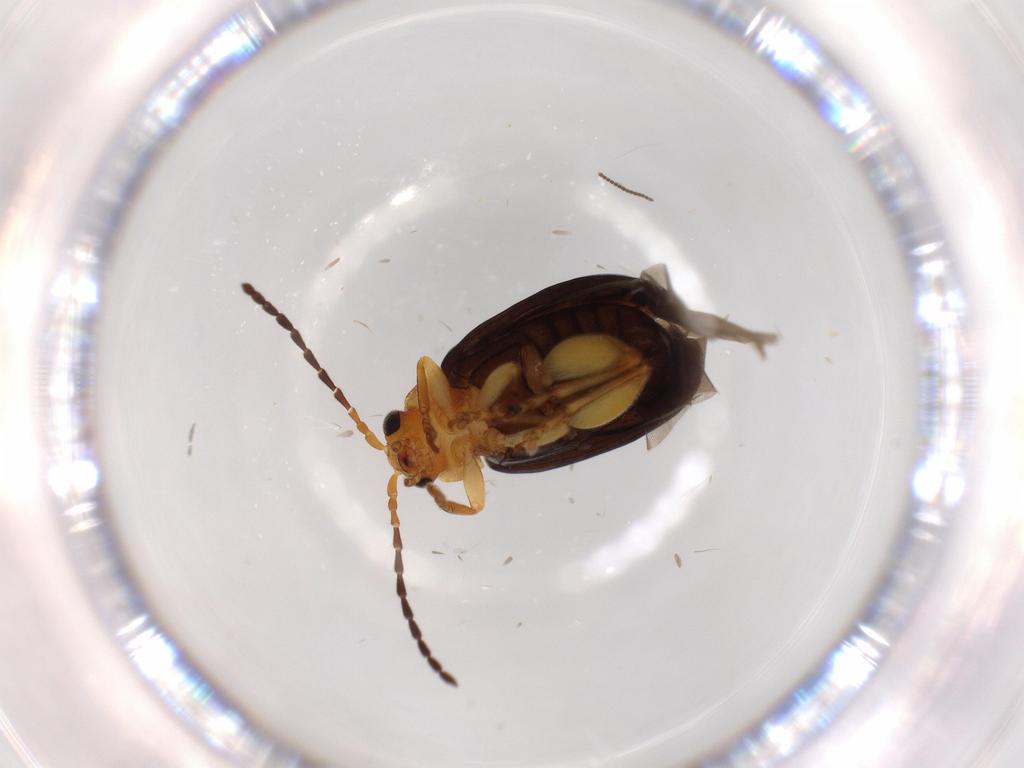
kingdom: Animalia
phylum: Arthropoda
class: Insecta
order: Coleoptera
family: Chrysomelidae
